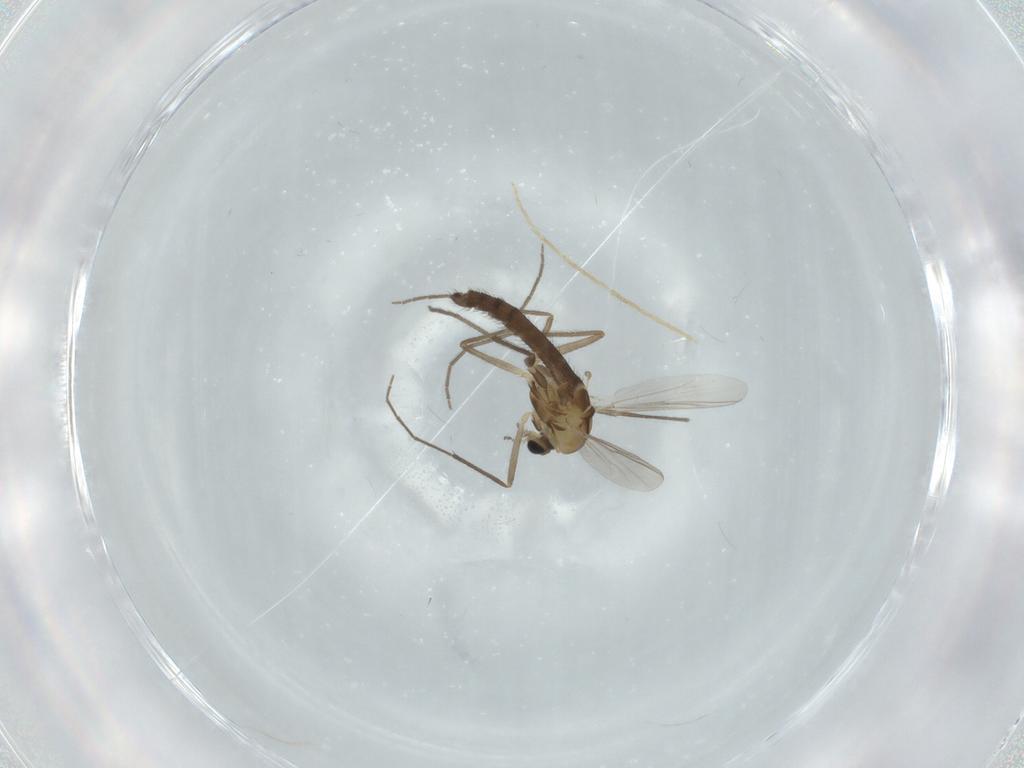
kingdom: Animalia
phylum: Arthropoda
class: Insecta
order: Diptera
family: Chironomidae
